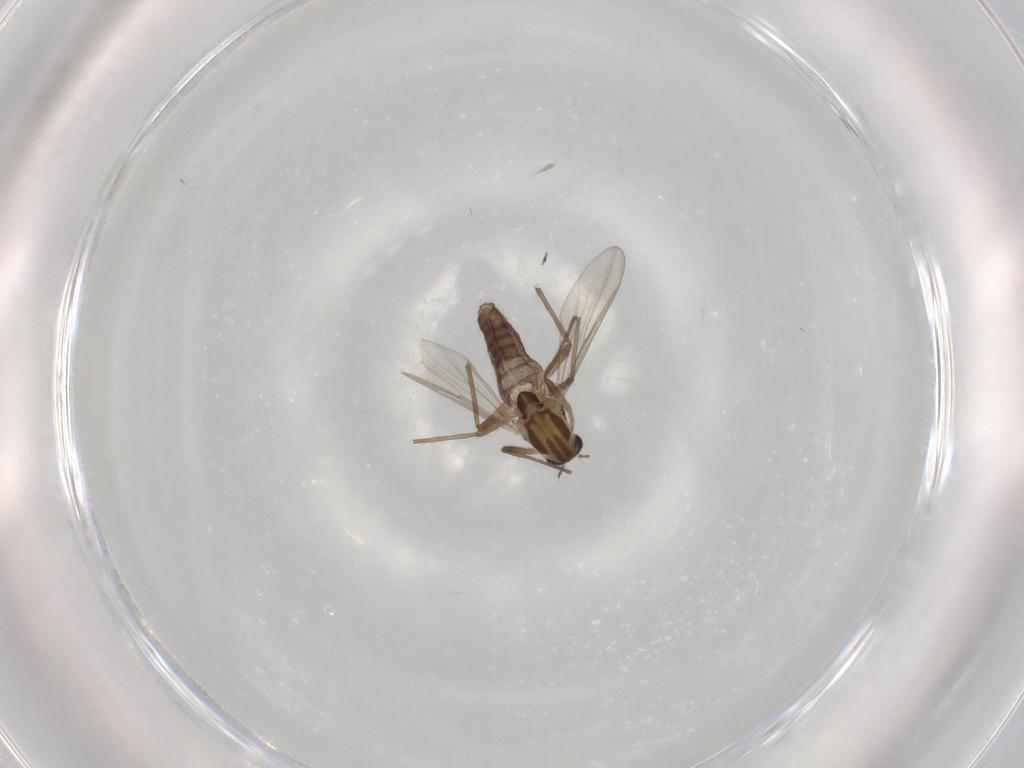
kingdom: Animalia
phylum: Arthropoda
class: Insecta
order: Diptera
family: Chironomidae
